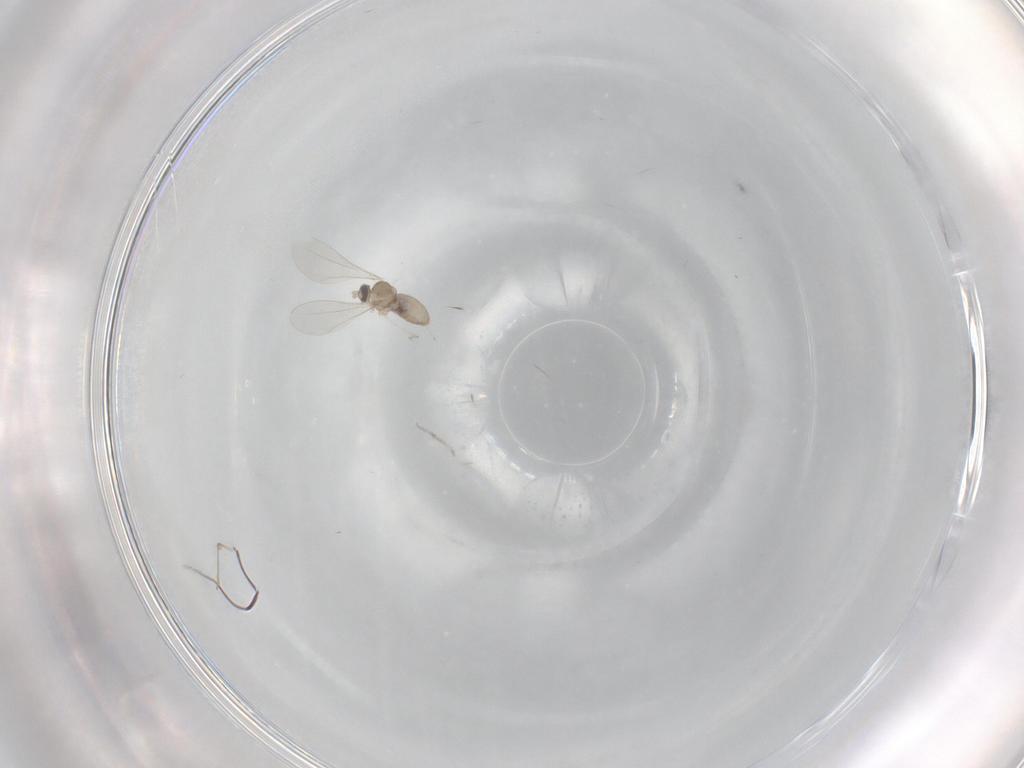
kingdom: Animalia
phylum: Arthropoda
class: Insecta
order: Diptera
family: Cecidomyiidae
